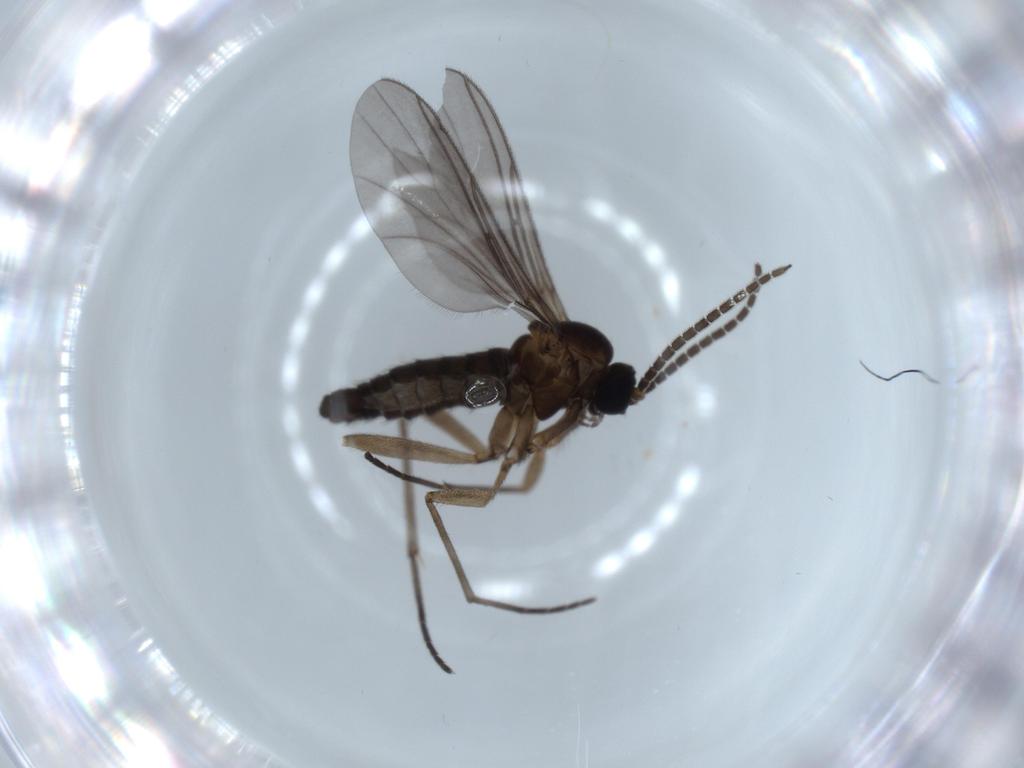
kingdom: Animalia
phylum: Arthropoda
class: Insecta
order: Diptera
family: Sciaridae
